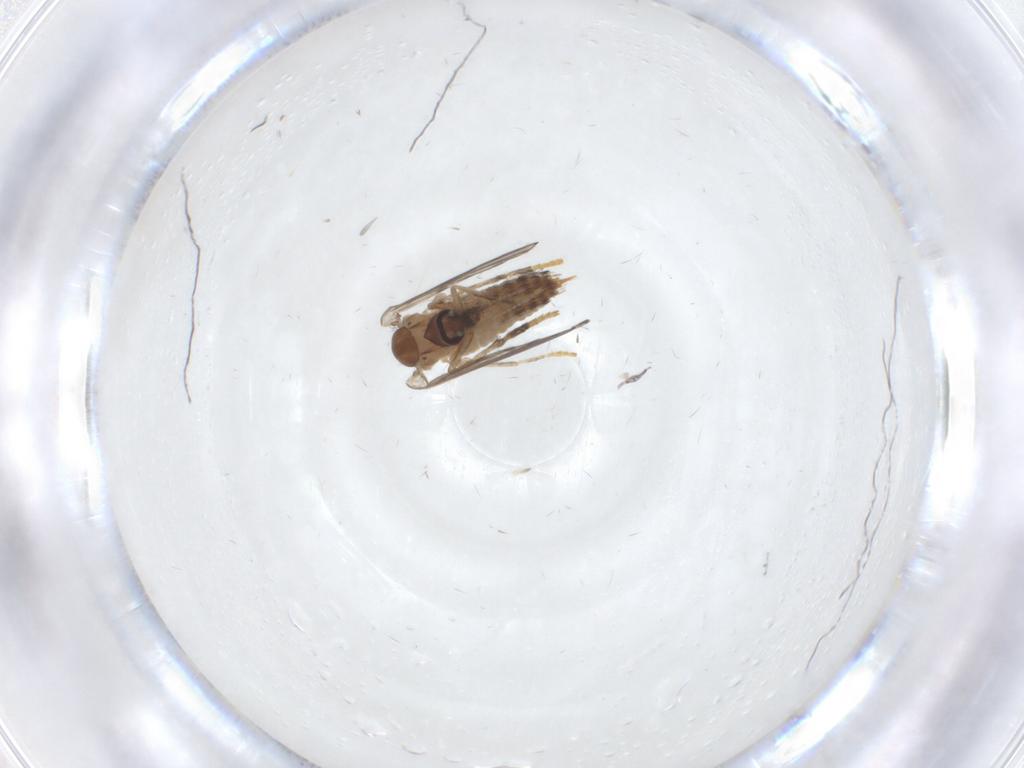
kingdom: Animalia
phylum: Arthropoda
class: Insecta
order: Diptera
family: Psychodidae
